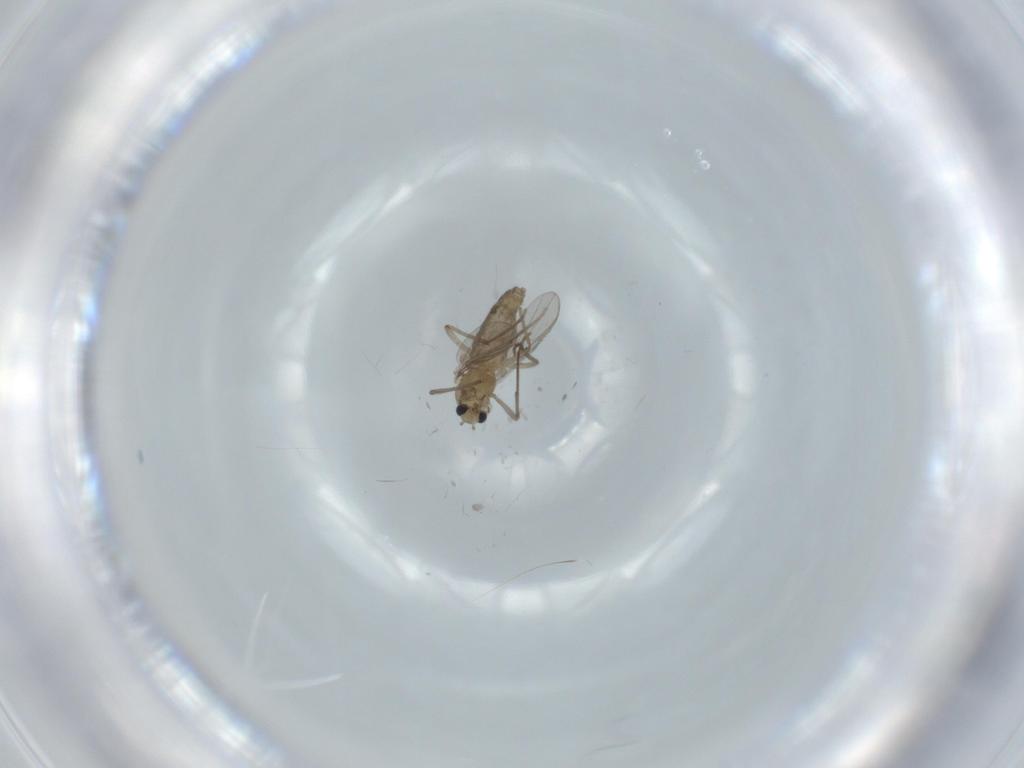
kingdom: Animalia
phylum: Arthropoda
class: Insecta
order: Diptera
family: Chironomidae
